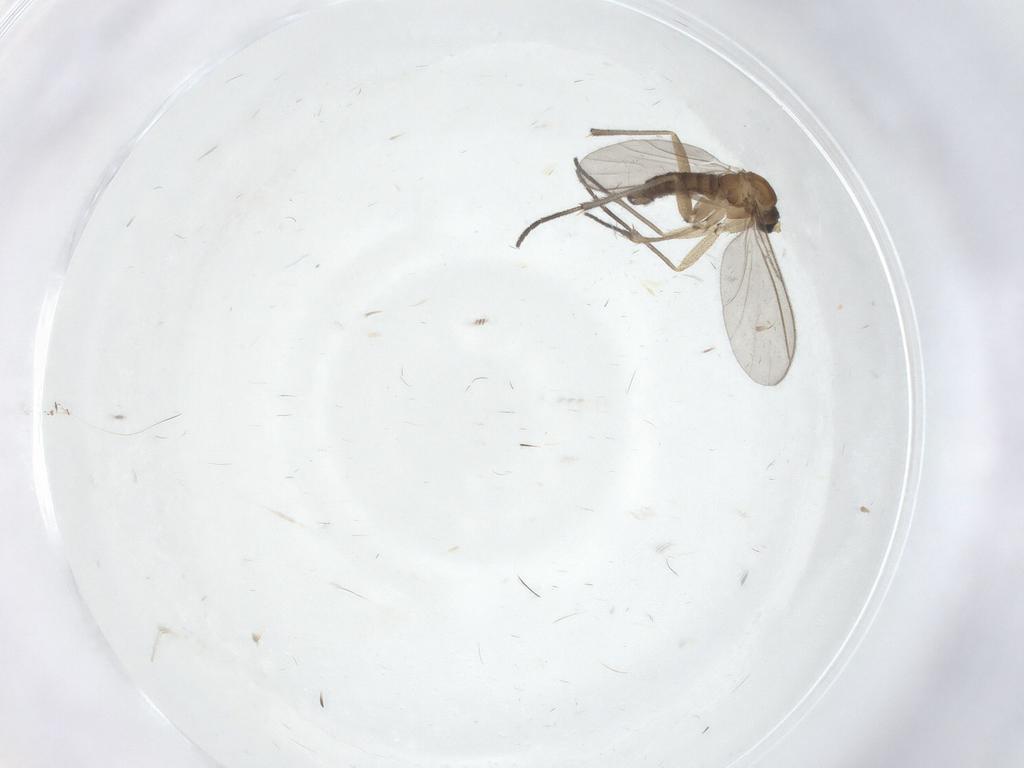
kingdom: Animalia
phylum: Arthropoda
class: Insecta
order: Diptera
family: Sciaridae
